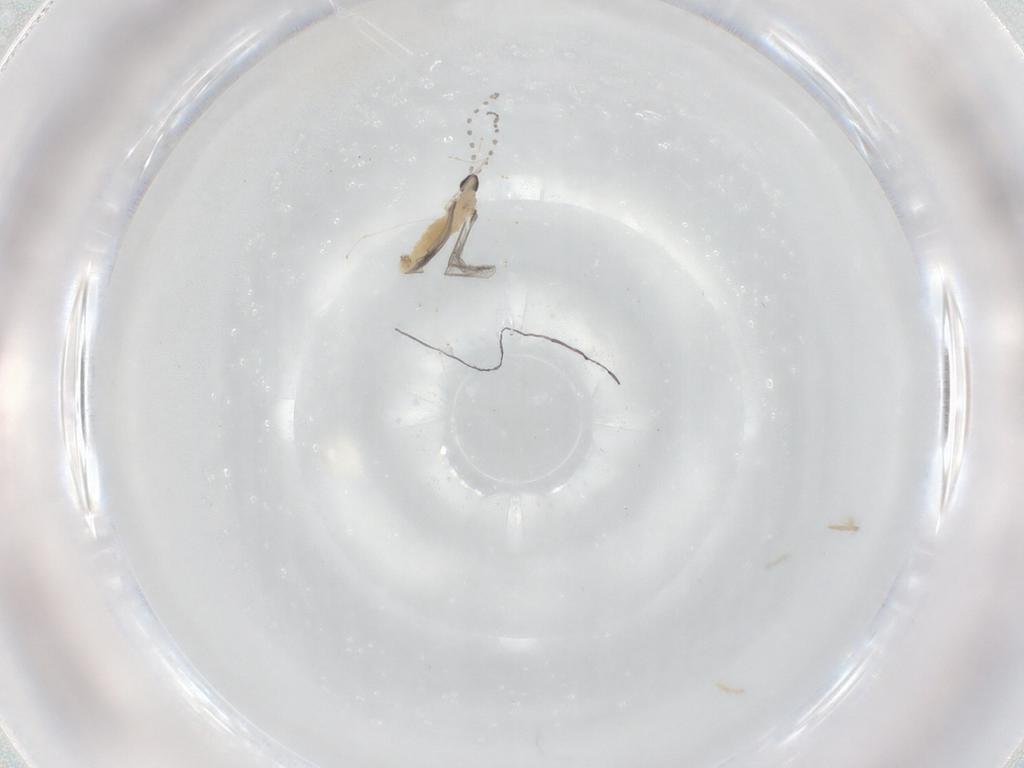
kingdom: Animalia
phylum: Arthropoda
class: Insecta
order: Diptera
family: Cecidomyiidae
